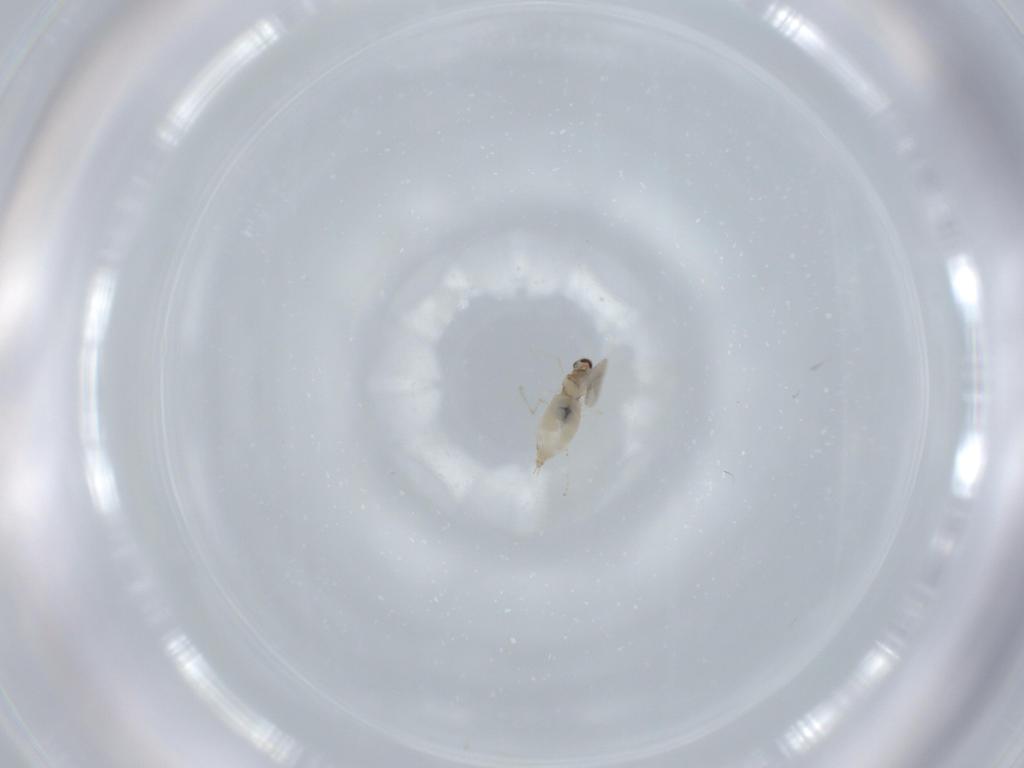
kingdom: Animalia
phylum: Arthropoda
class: Insecta
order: Diptera
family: Cecidomyiidae
